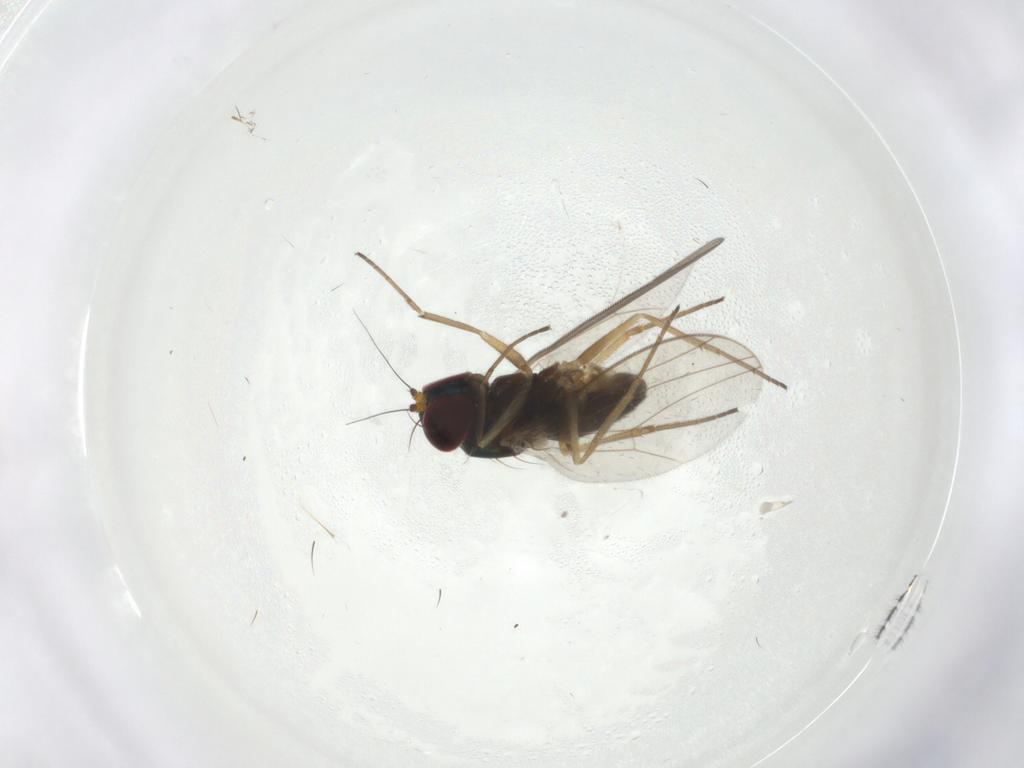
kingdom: Animalia
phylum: Arthropoda
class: Insecta
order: Diptera
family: Sciaridae
